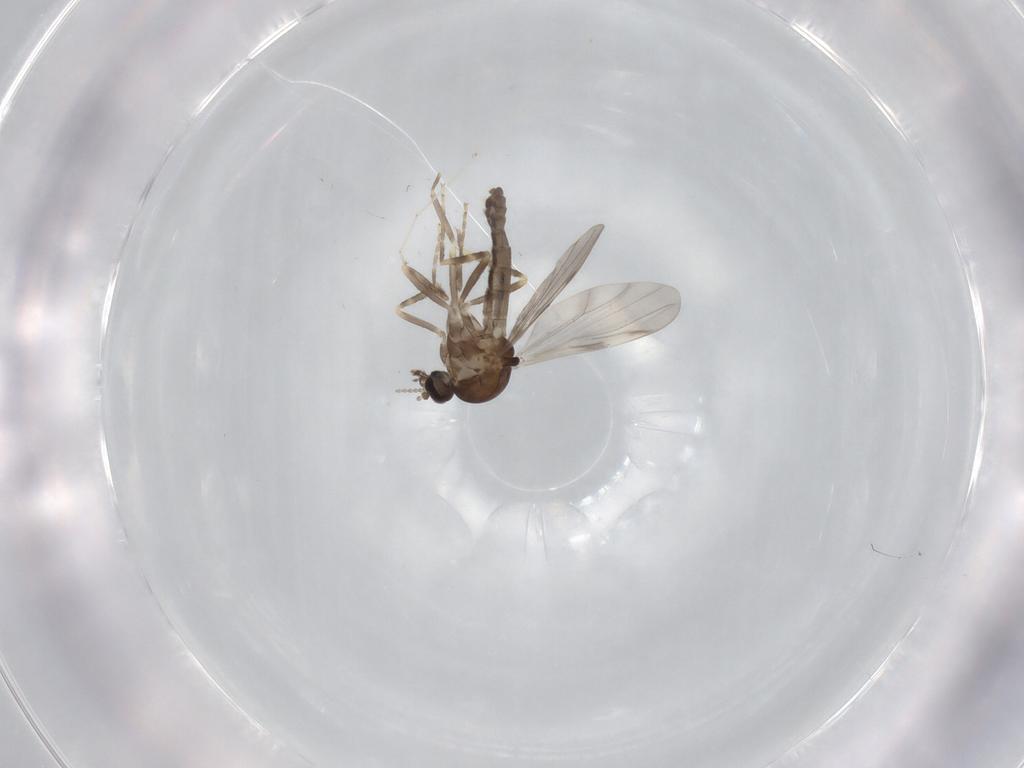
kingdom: Animalia
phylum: Arthropoda
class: Insecta
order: Diptera
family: Ceratopogonidae
